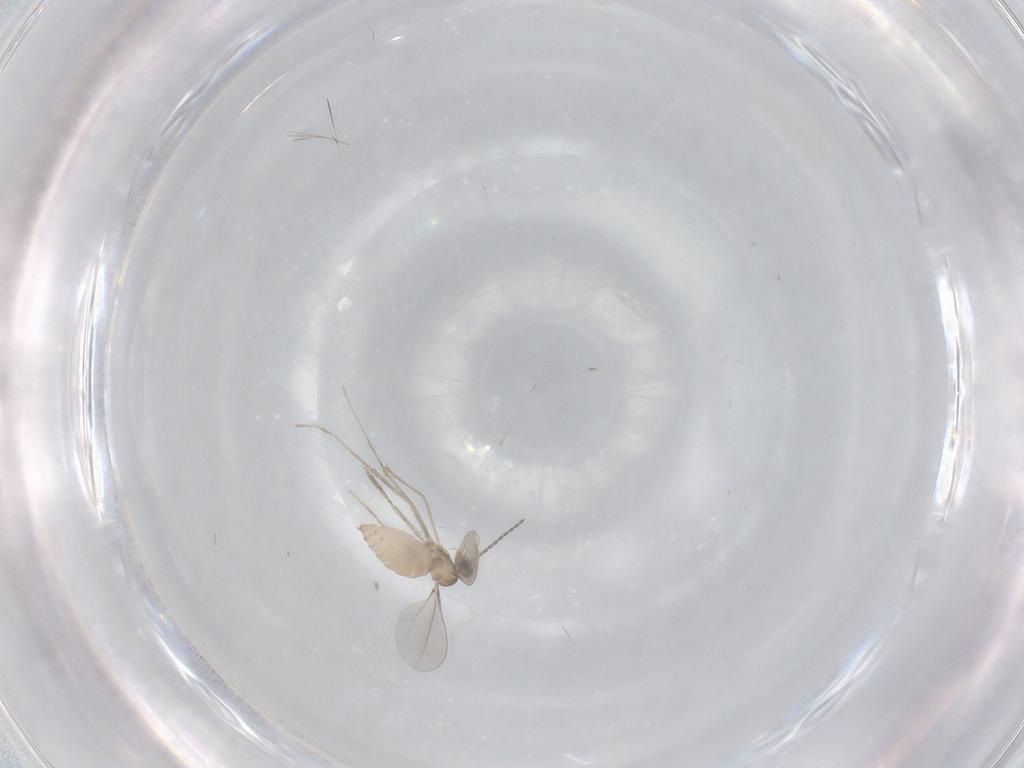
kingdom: Animalia
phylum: Arthropoda
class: Insecta
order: Diptera
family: Cecidomyiidae
